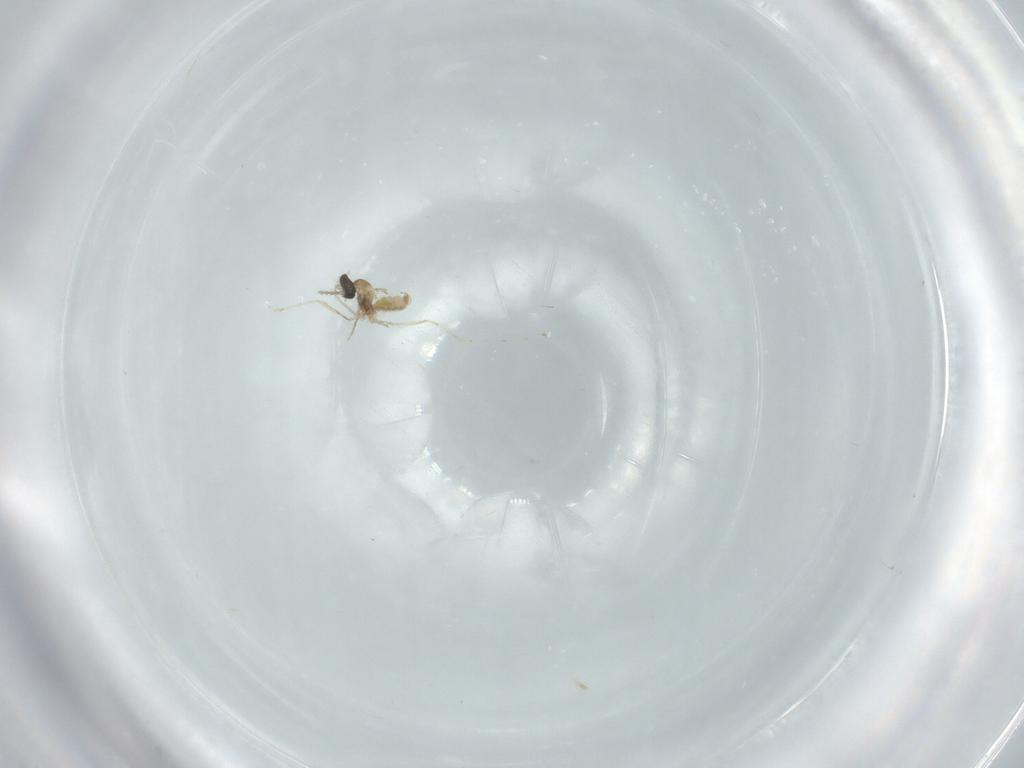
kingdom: Animalia
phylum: Arthropoda
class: Insecta
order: Diptera
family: Cecidomyiidae
